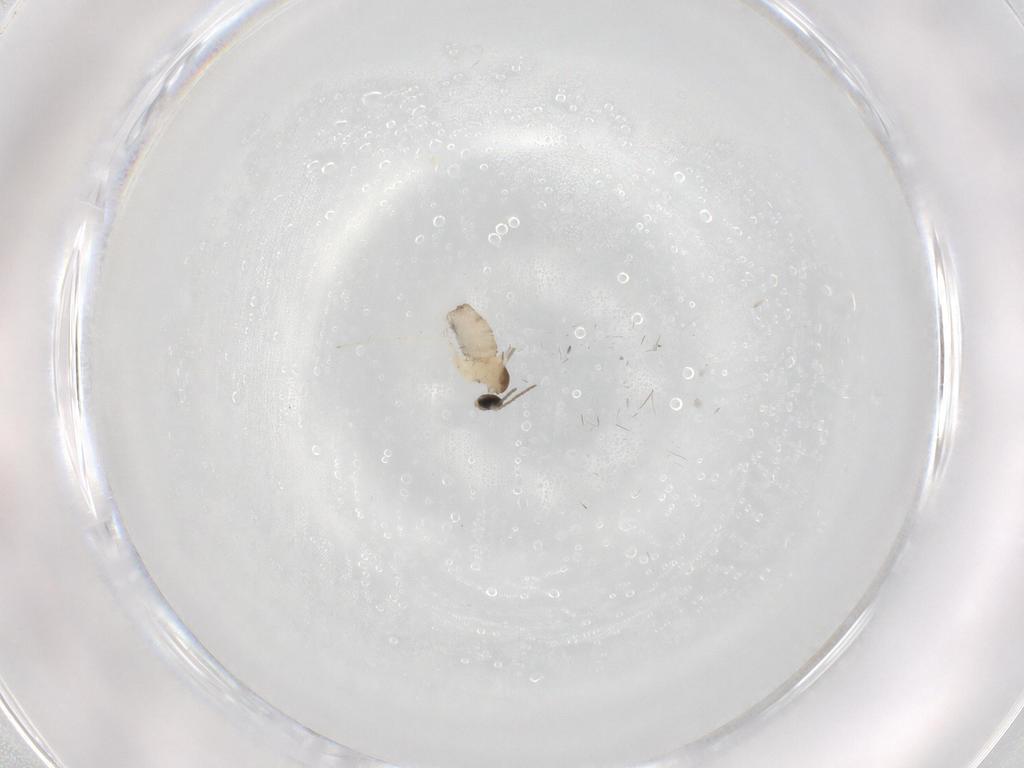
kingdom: Animalia
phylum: Arthropoda
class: Insecta
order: Diptera
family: Cecidomyiidae
